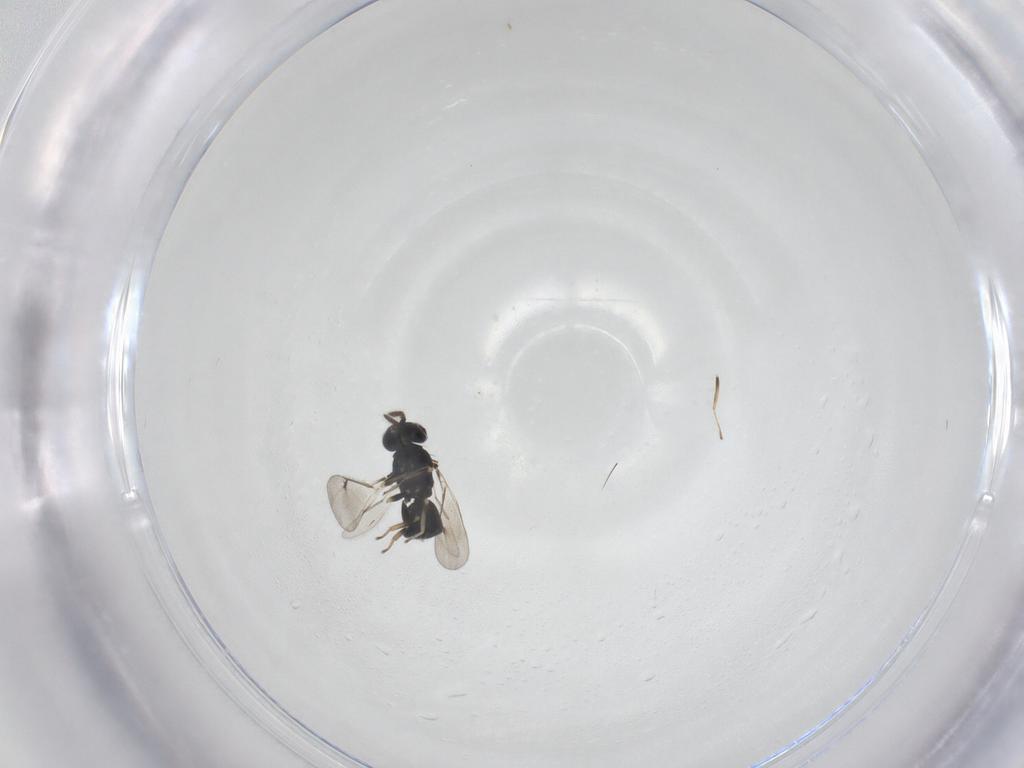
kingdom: Animalia
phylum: Arthropoda
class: Insecta
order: Hymenoptera
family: Eulophidae
